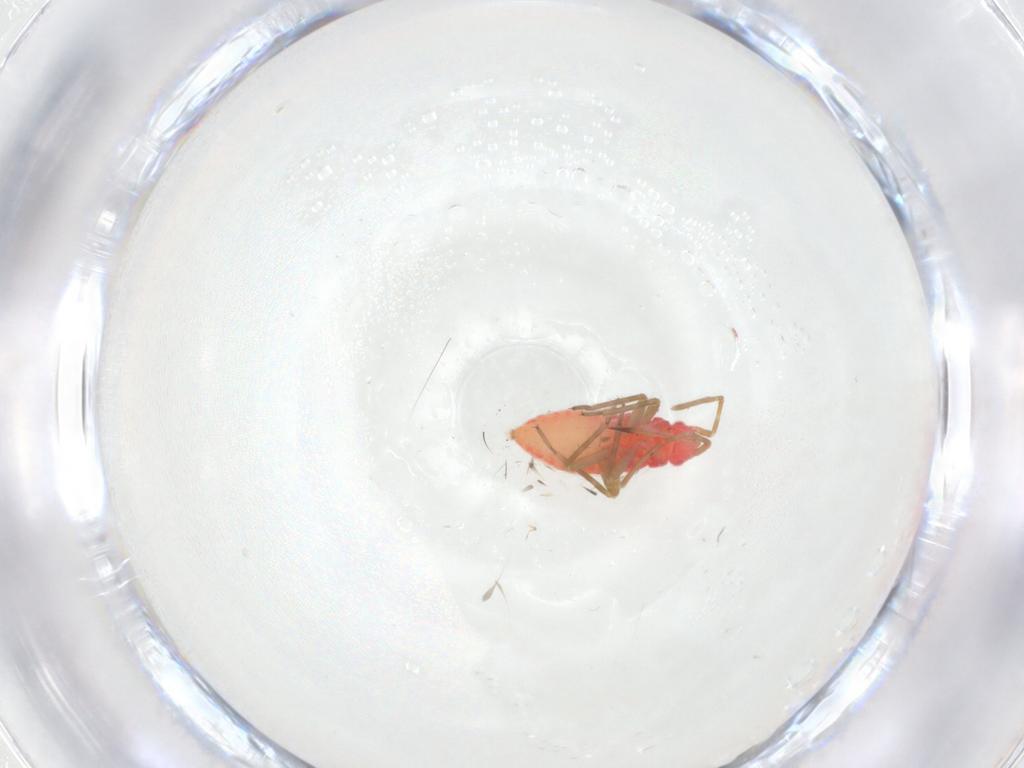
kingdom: Animalia
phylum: Arthropoda
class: Insecta
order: Hemiptera
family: Miridae
